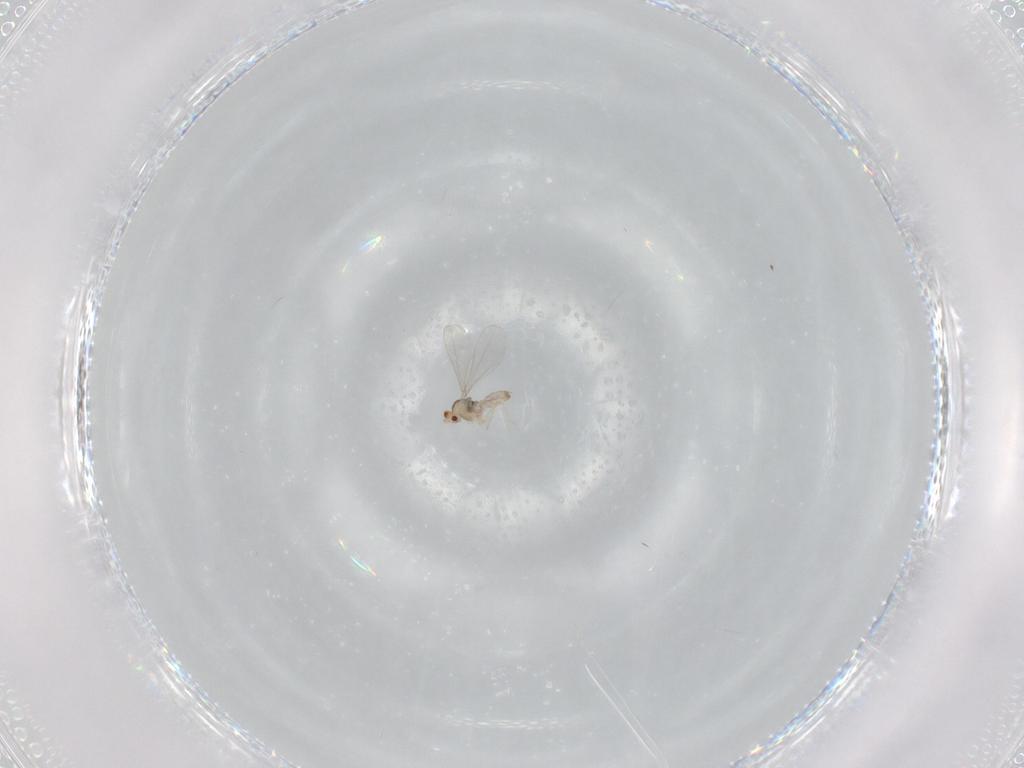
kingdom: Animalia
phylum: Arthropoda
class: Insecta
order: Diptera
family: Cecidomyiidae
